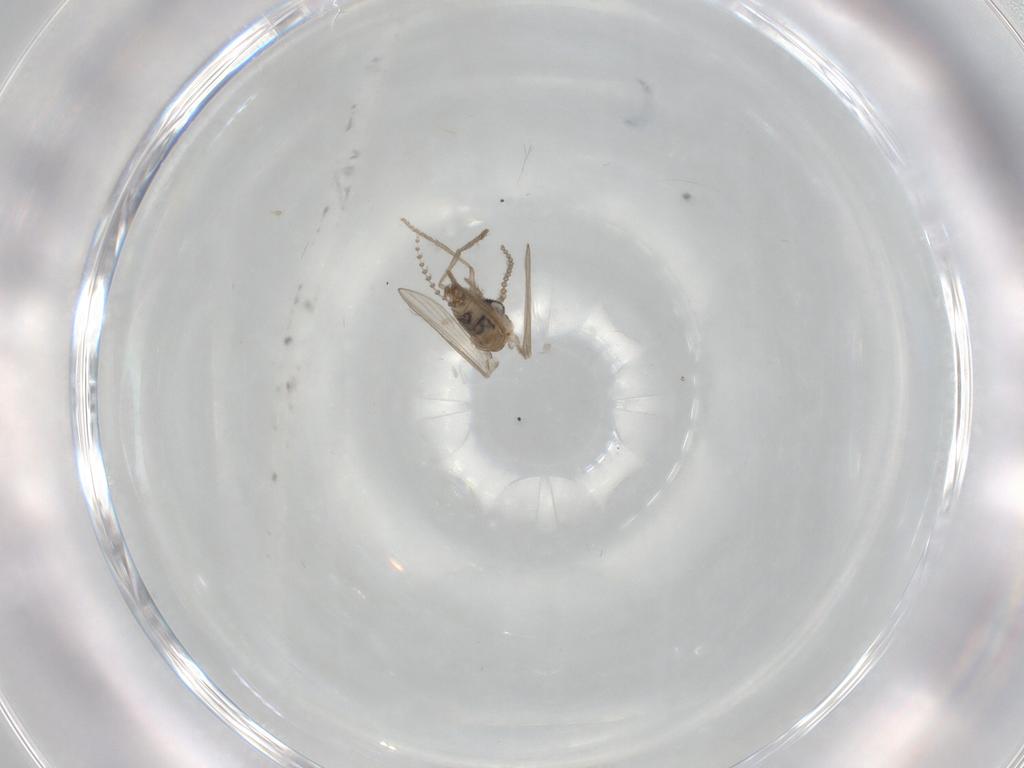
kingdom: Animalia
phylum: Arthropoda
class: Insecta
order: Diptera
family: Psychodidae
